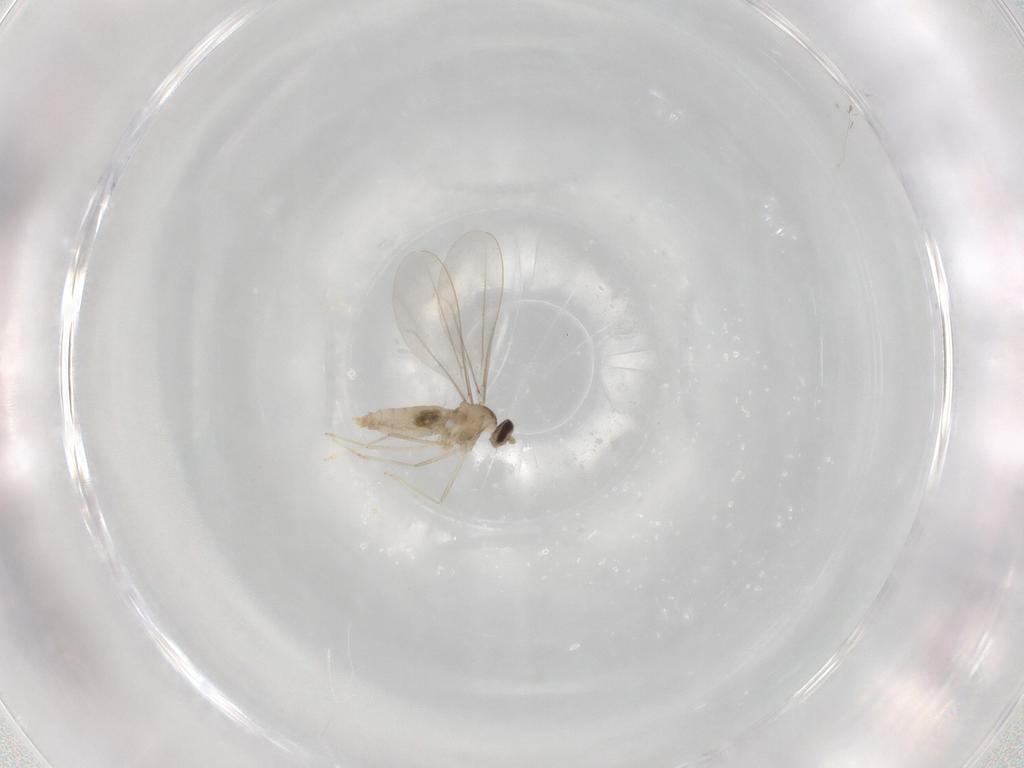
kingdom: Animalia
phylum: Arthropoda
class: Insecta
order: Diptera
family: Cecidomyiidae
